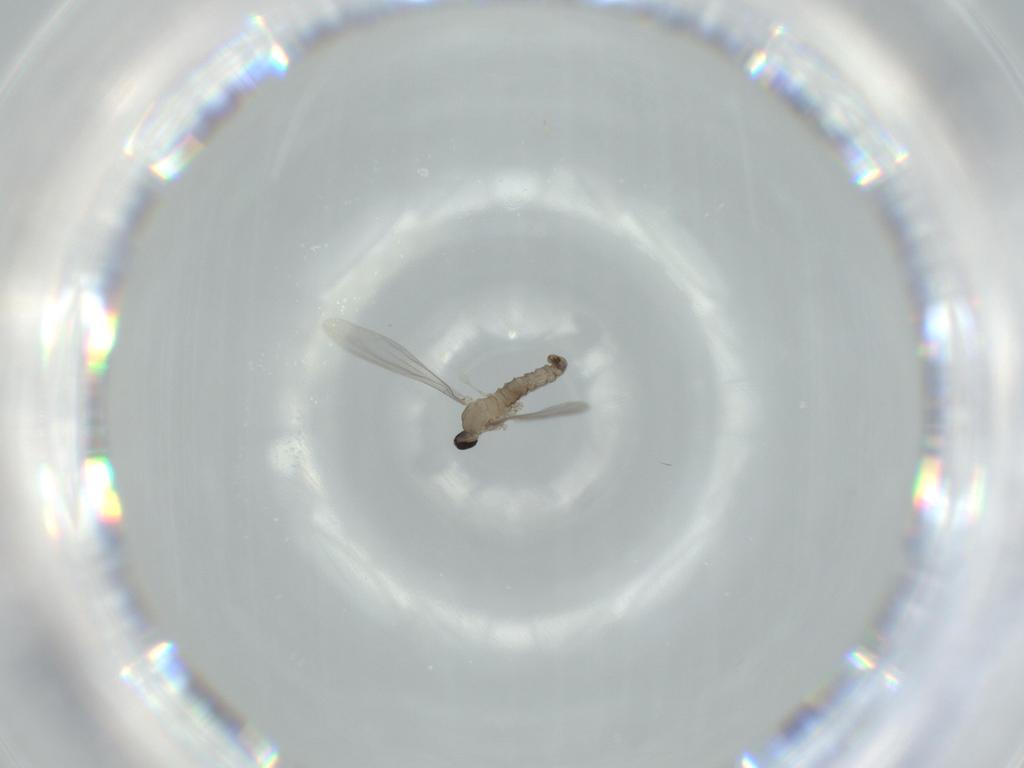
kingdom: Animalia
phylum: Arthropoda
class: Insecta
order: Diptera
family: Cecidomyiidae
